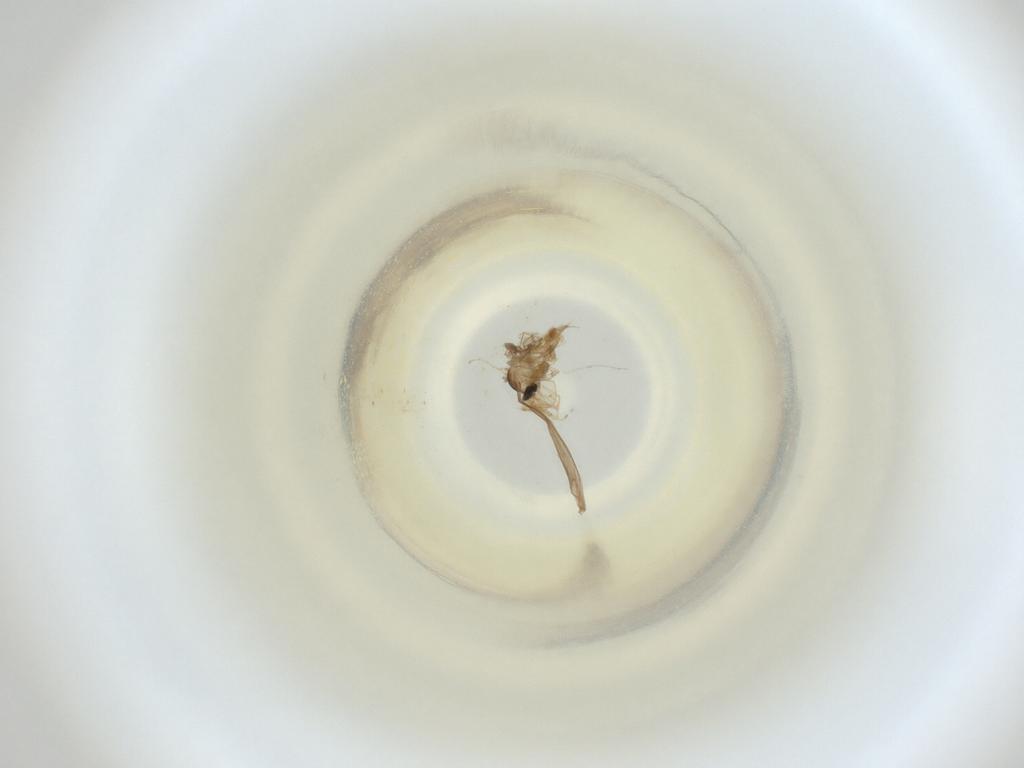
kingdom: Animalia
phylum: Arthropoda
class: Insecta
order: Diptera
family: Cecidomyiidae
